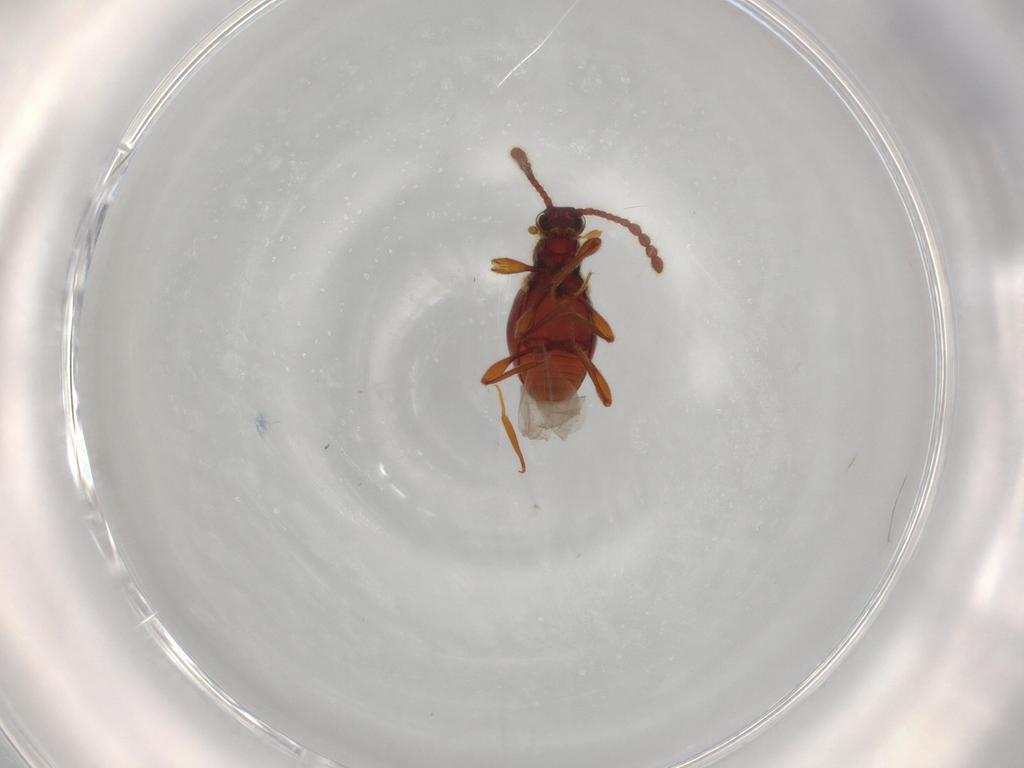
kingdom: Animalia
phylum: Arthropoda
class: Insecta
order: Coleoptera
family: Staphylinidae
